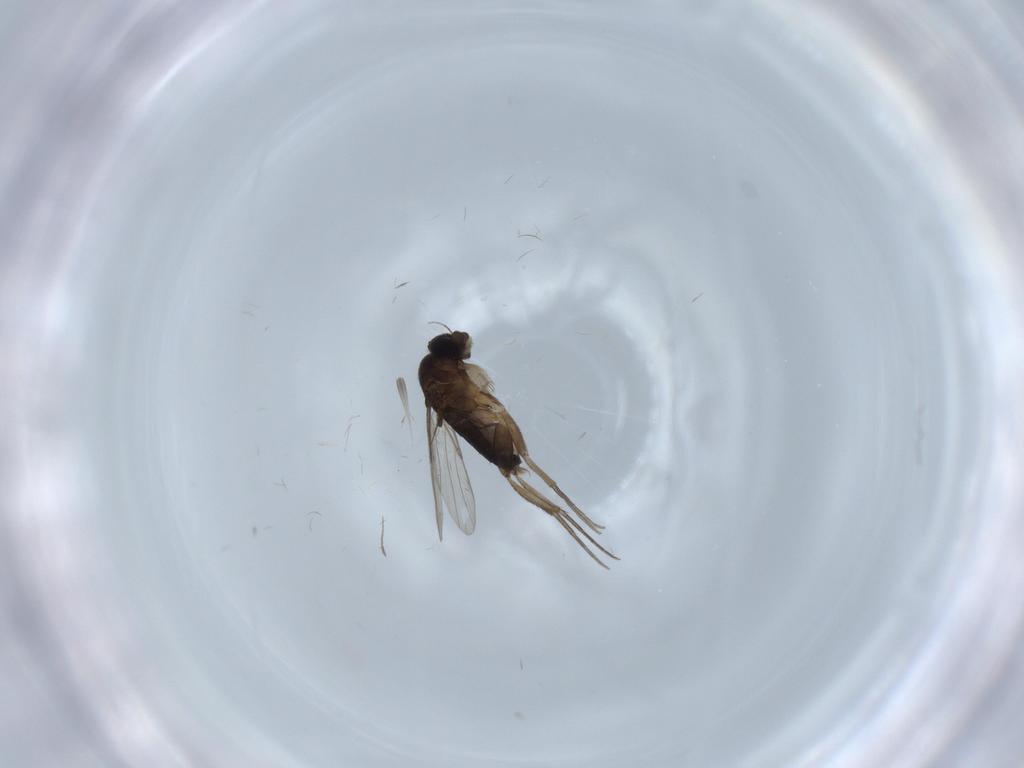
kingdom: Animalia
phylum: Arthropoda
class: Insecta
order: Diptera
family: Phoridae
